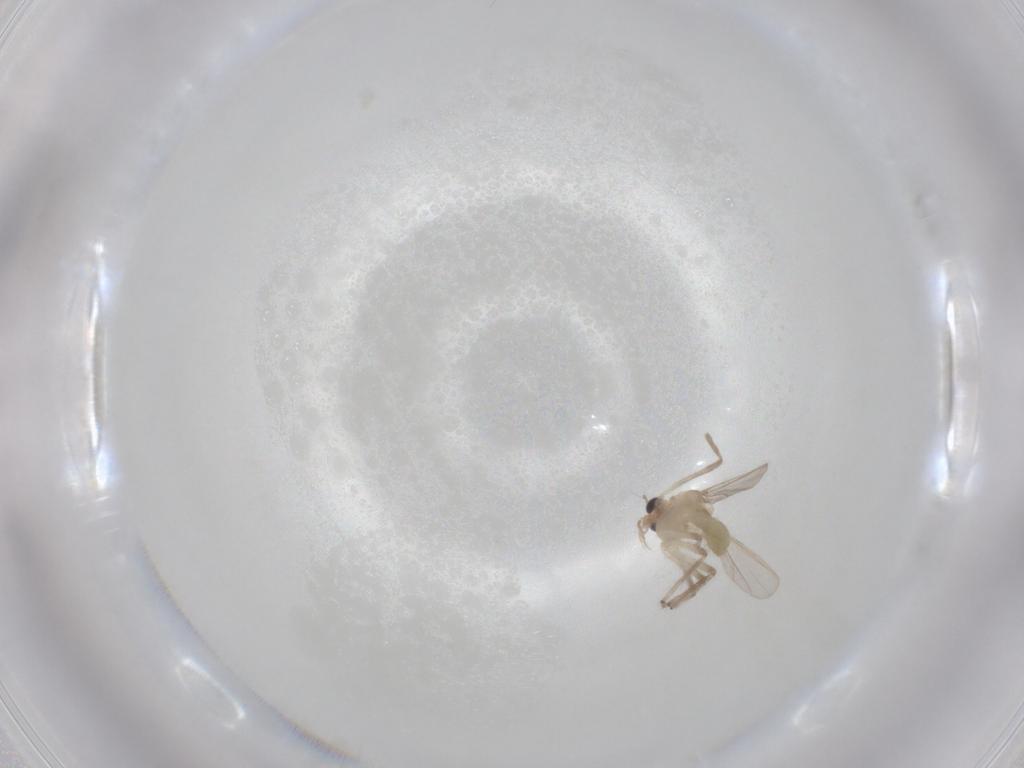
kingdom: Animalia
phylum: Arthropoda
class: Insecta
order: Diptera
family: Chironomidae
